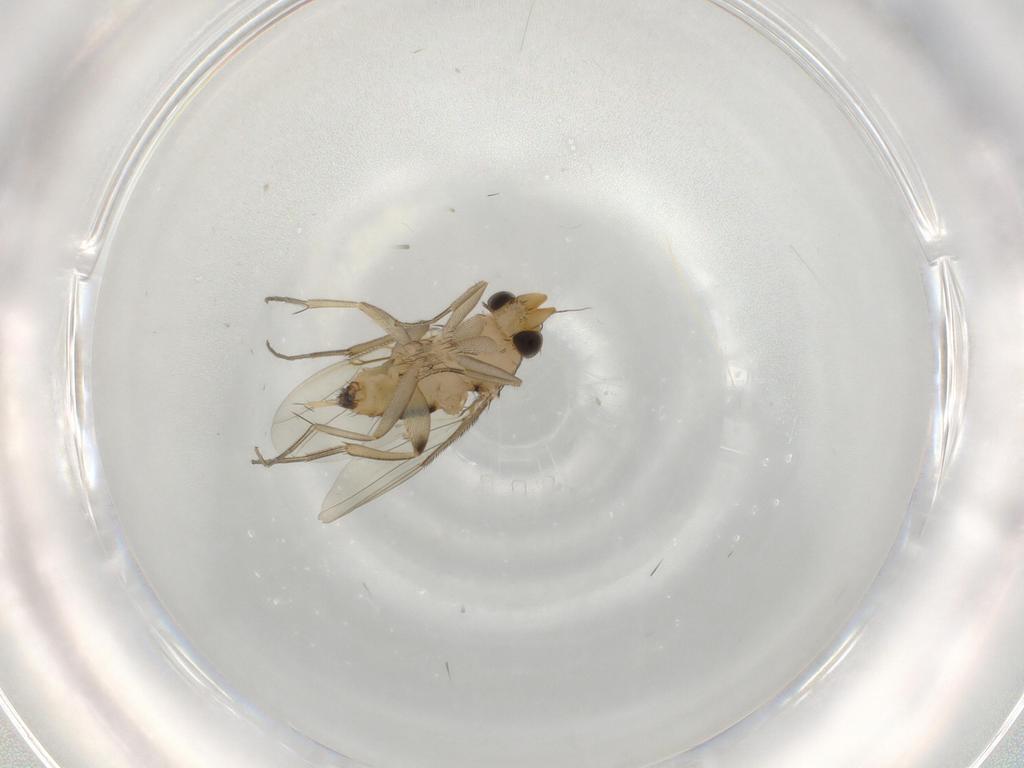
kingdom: Animalia
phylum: Arthropoda
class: Insecta
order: Diptera
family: Phoridae
